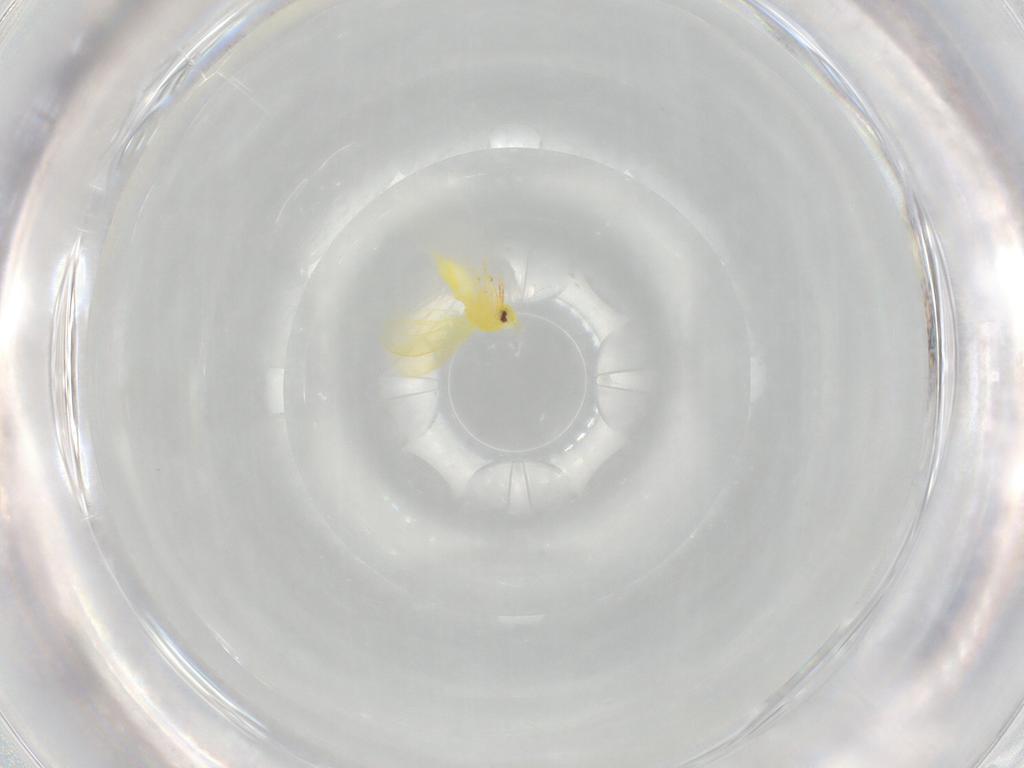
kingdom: Animalia
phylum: Arthropoda
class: Insecta
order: Hemiptera
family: Aleyrodidae
